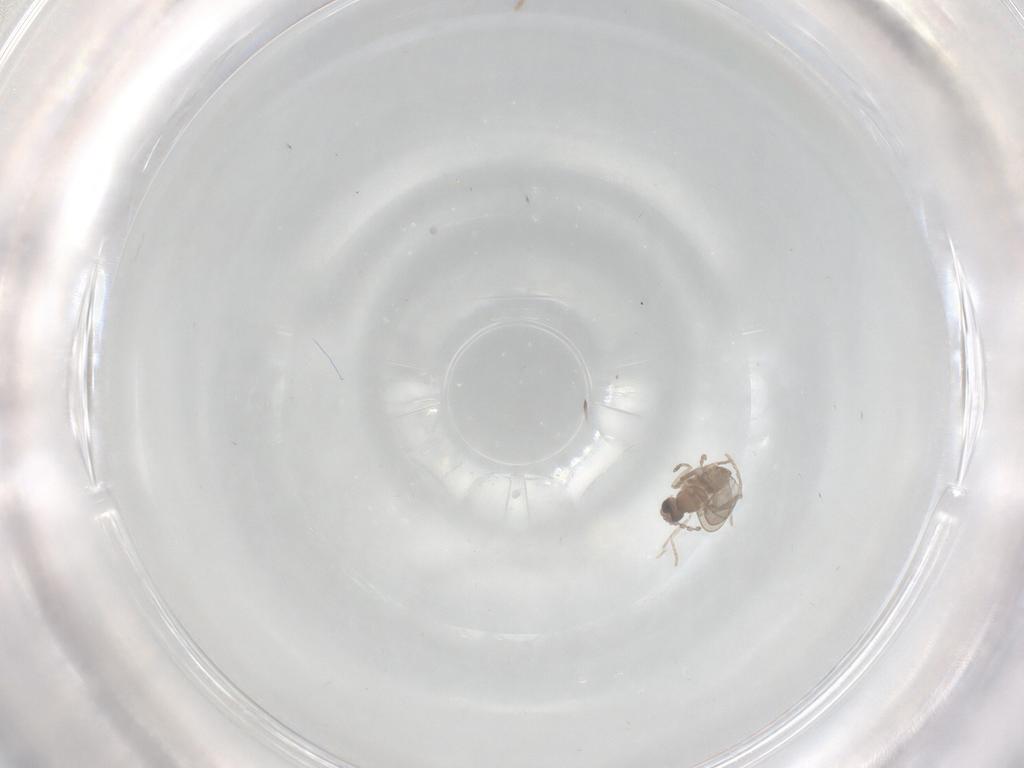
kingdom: Animalia
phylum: Arthropoda
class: Insecta
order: Diptera
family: Cecidomyiidae
